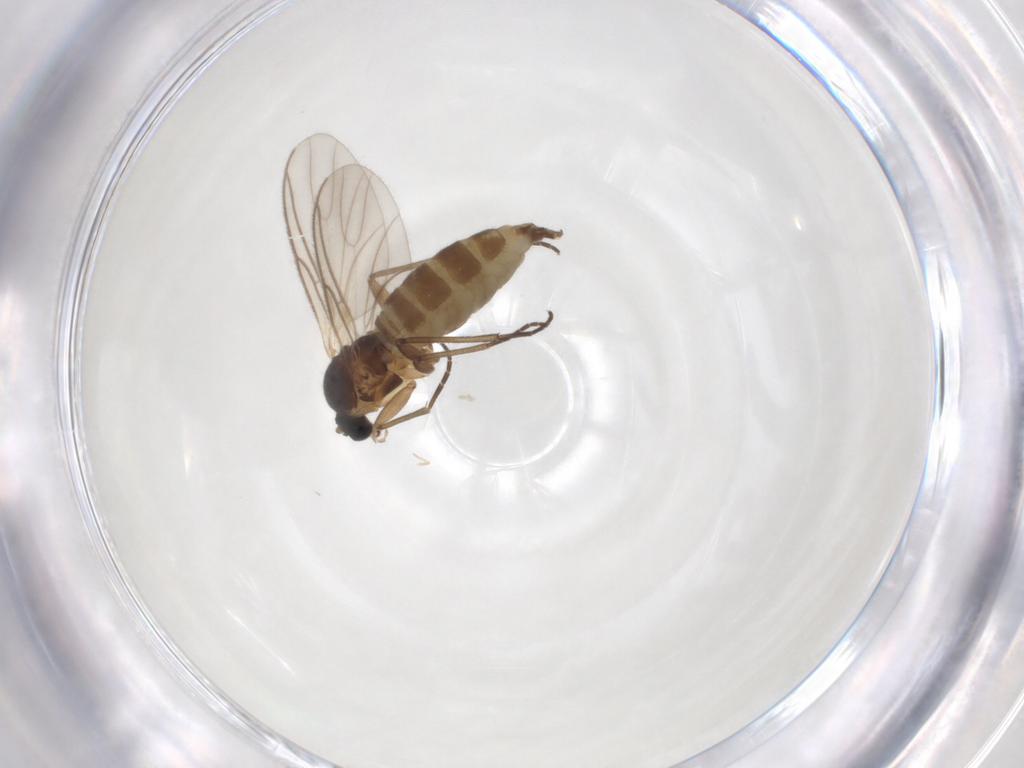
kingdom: Animalia
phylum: Arthropoda
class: Insecta
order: Diptera
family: Chloropidae
